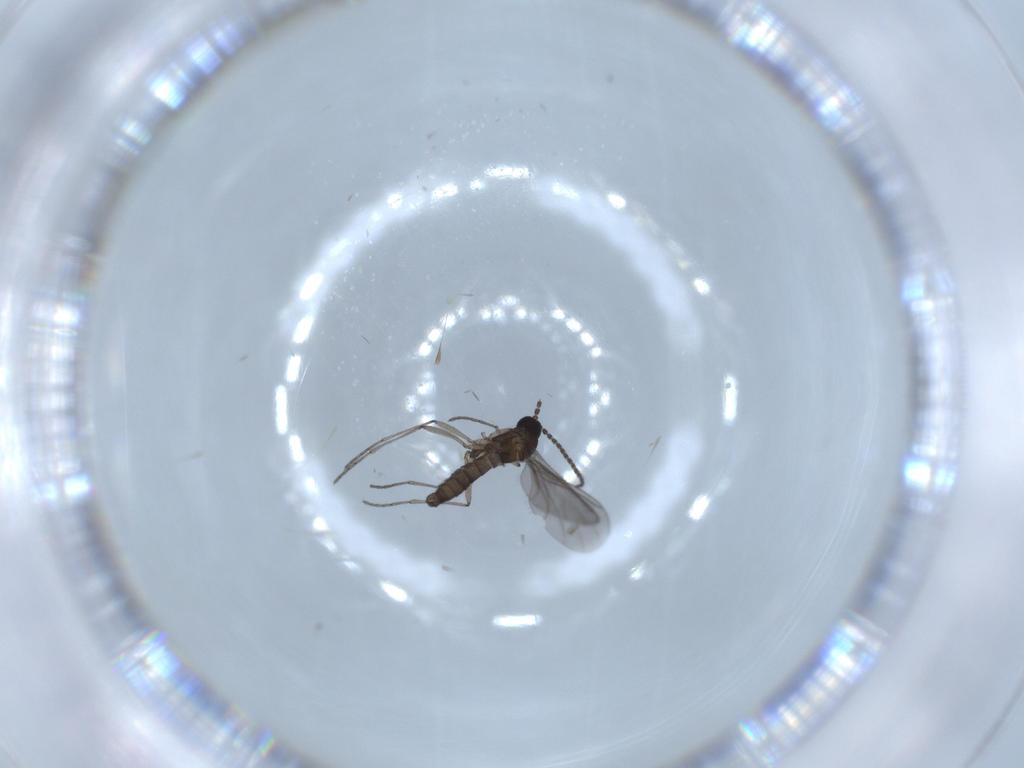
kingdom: Animalia
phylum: Arthropoda
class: Insecta
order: Diptera
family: Sciaridae
